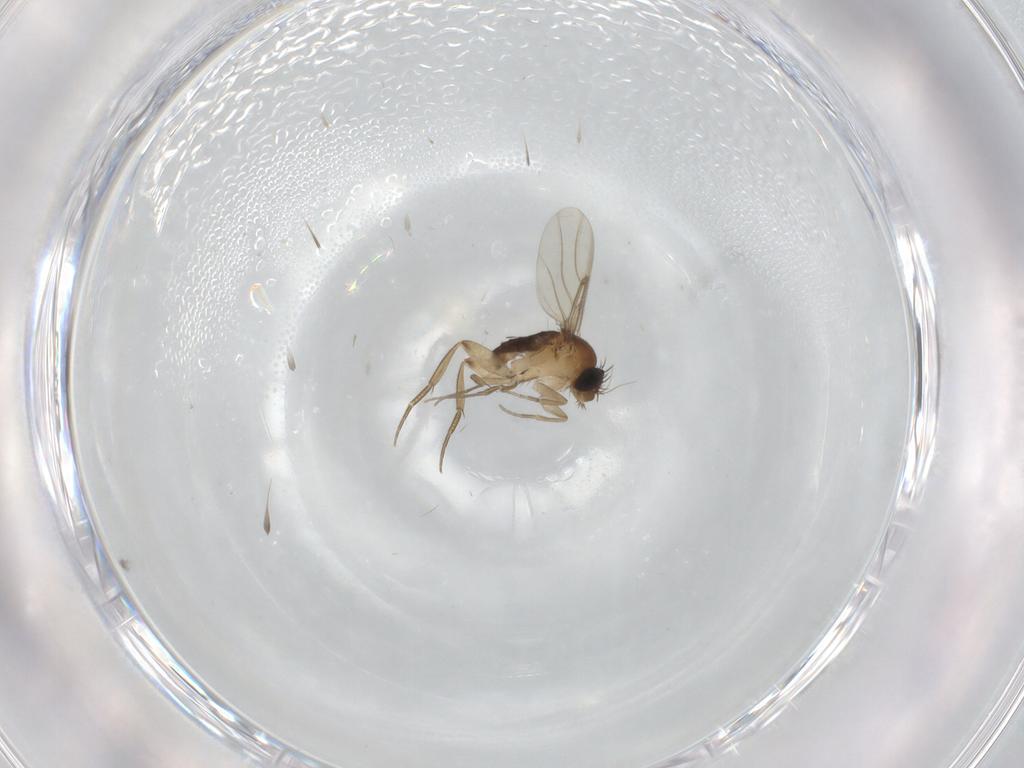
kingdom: Animalia
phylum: Arthropoda
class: Insecta
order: Diptera
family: Phoridae
